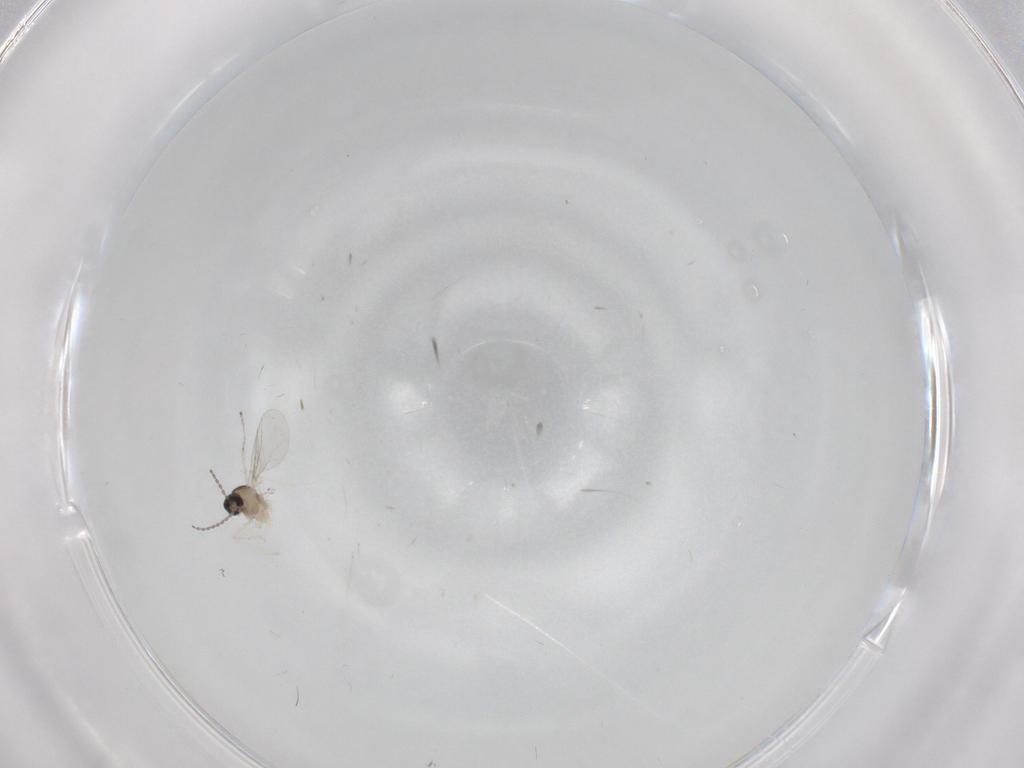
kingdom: Animalia
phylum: Arthropoda
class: Insecta
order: Diptera
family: Cecidomyiidae
